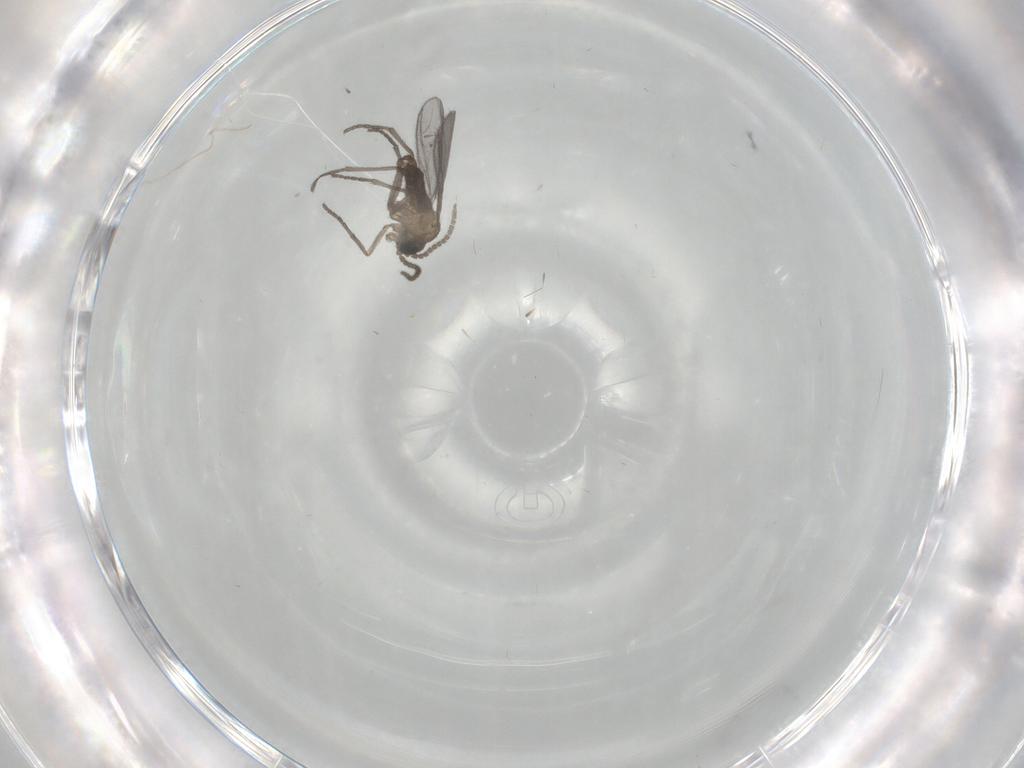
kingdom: Animalia
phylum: Arthropoda
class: Insecta
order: Diptera
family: Sciaridae
